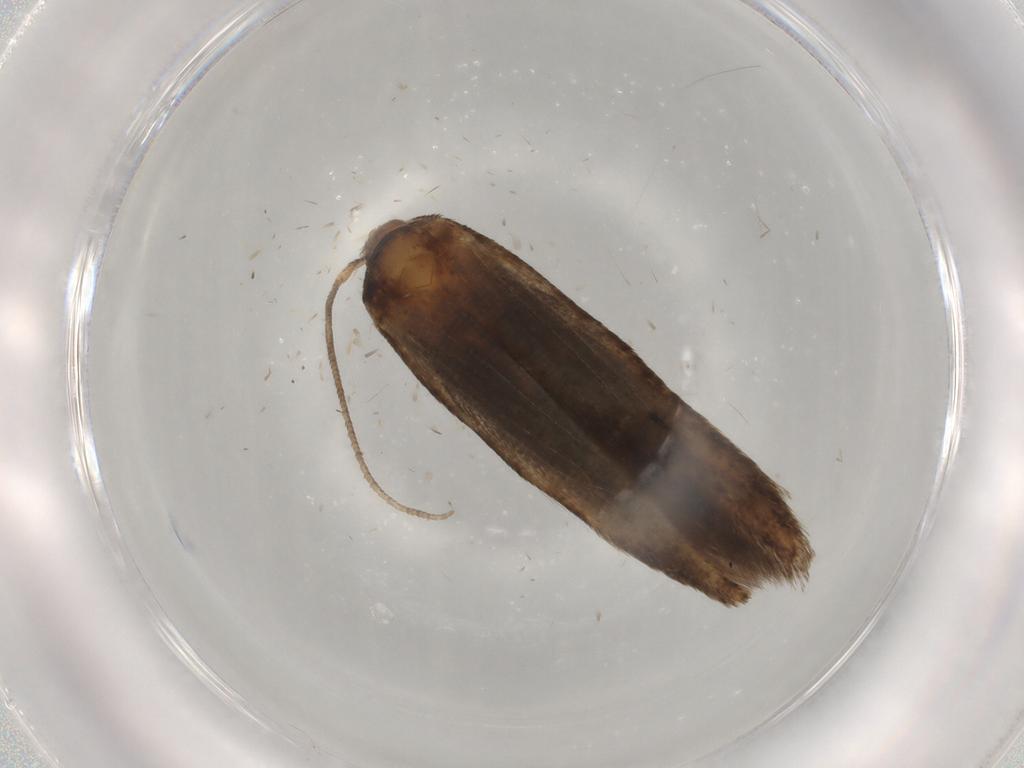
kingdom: Animalia
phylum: Arthropoda
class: Insecta
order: Lepidoptera
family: Cosmopterigidae
